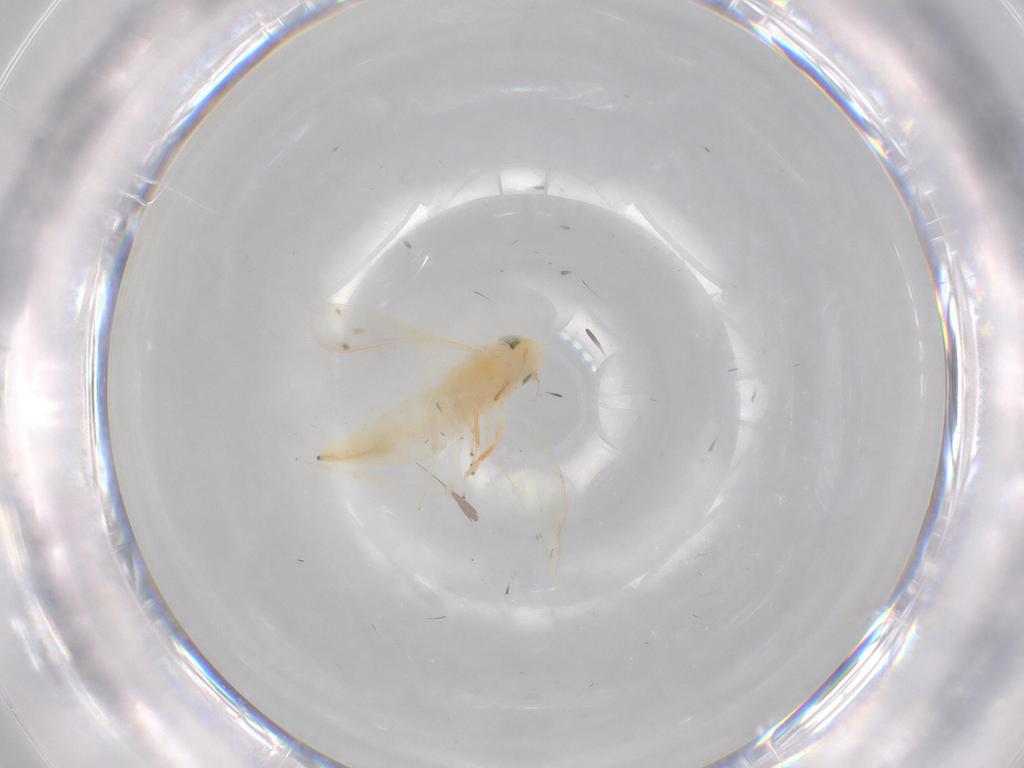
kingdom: Animalia
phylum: Arthropoda
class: Insecta
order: Hemiptera
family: Cicadellidae
